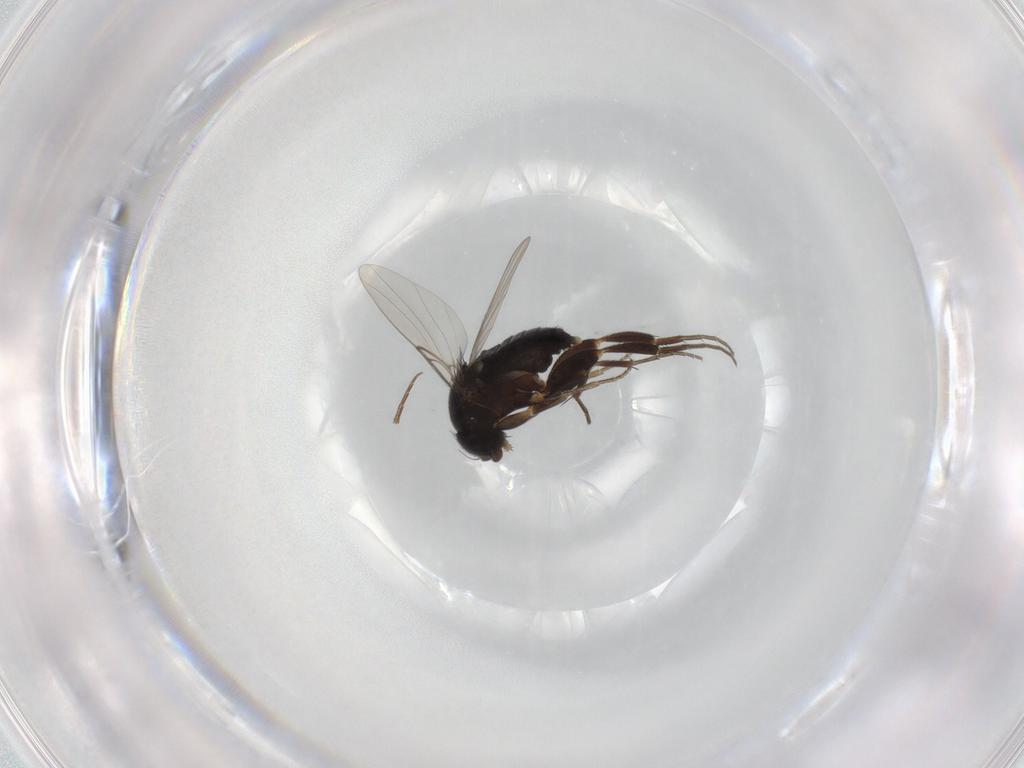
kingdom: Animalia
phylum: Arthropoda
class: Insecta
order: Diptera
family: Phoridae
